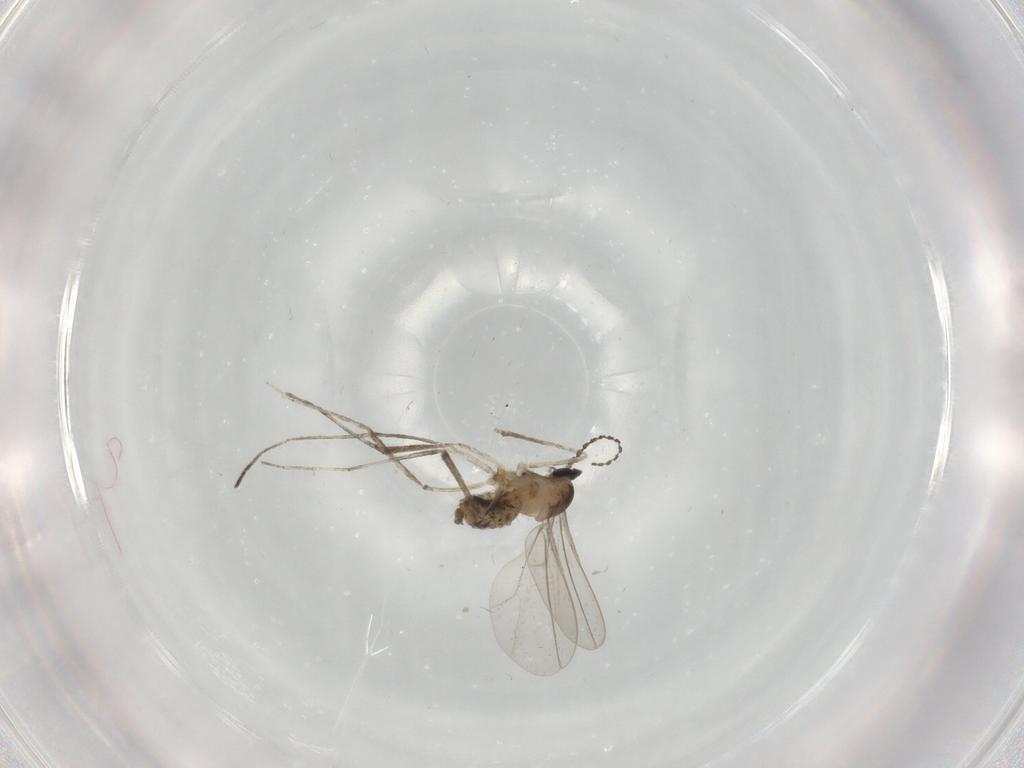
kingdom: Animalia
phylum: Arthropoda
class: Insecta
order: Diptera
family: Cecidomyiidae
